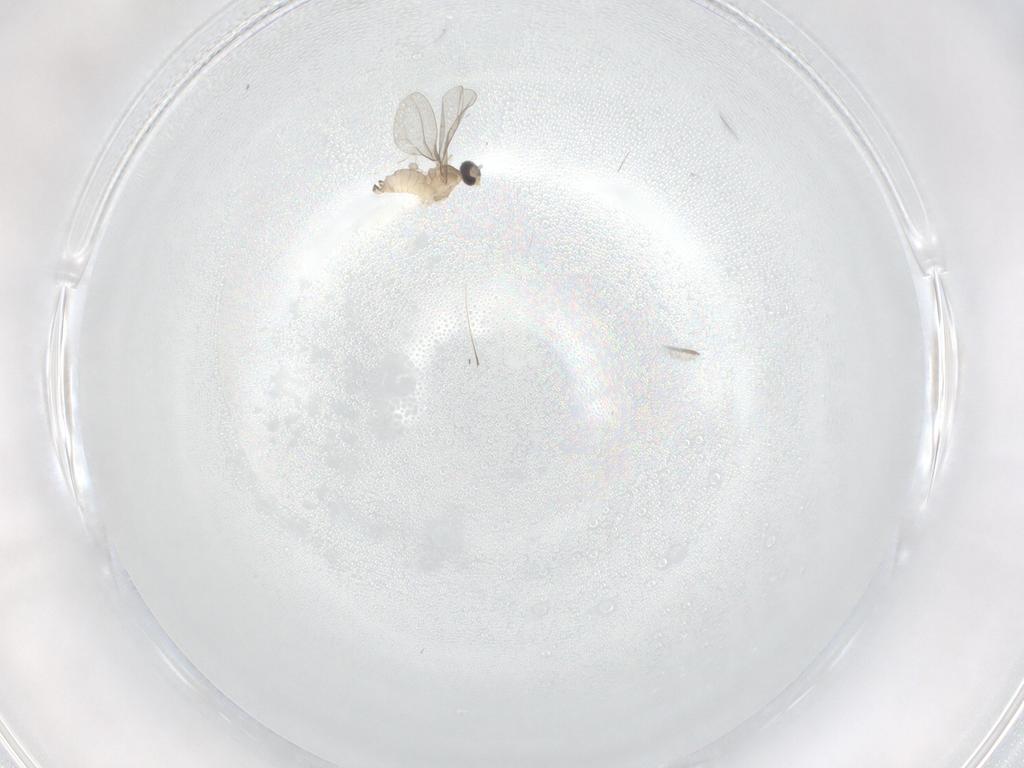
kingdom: Animalia
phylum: Arthropoda
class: Insecta
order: Diptera
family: Cecidomyiidae
